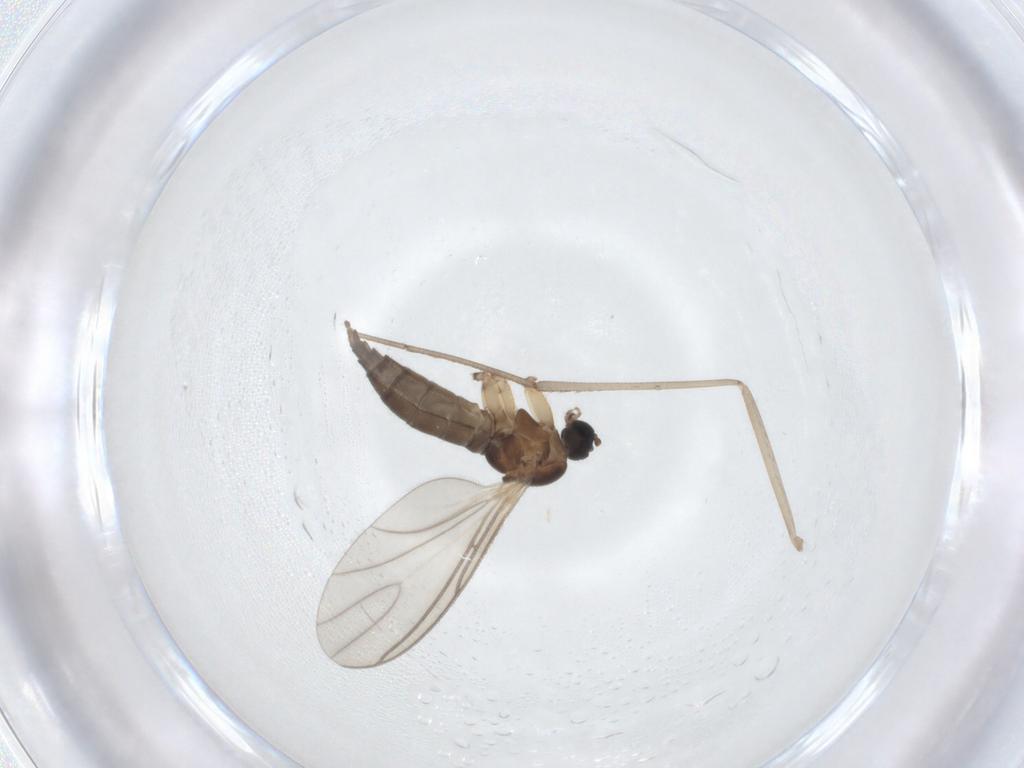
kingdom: Animalia
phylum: Arthropoda
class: Insecta
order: Diptera
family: Sciaridae
